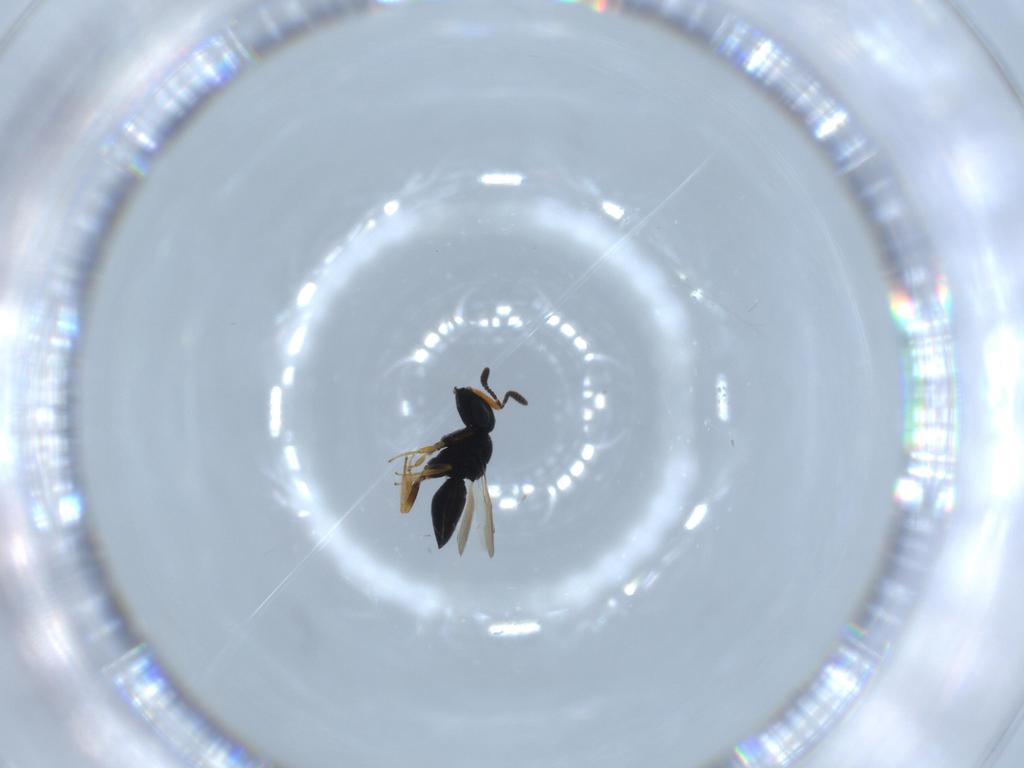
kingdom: Animalia
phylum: Arthropoda
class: Insecta
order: Hymenoptera
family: Scelionidae
